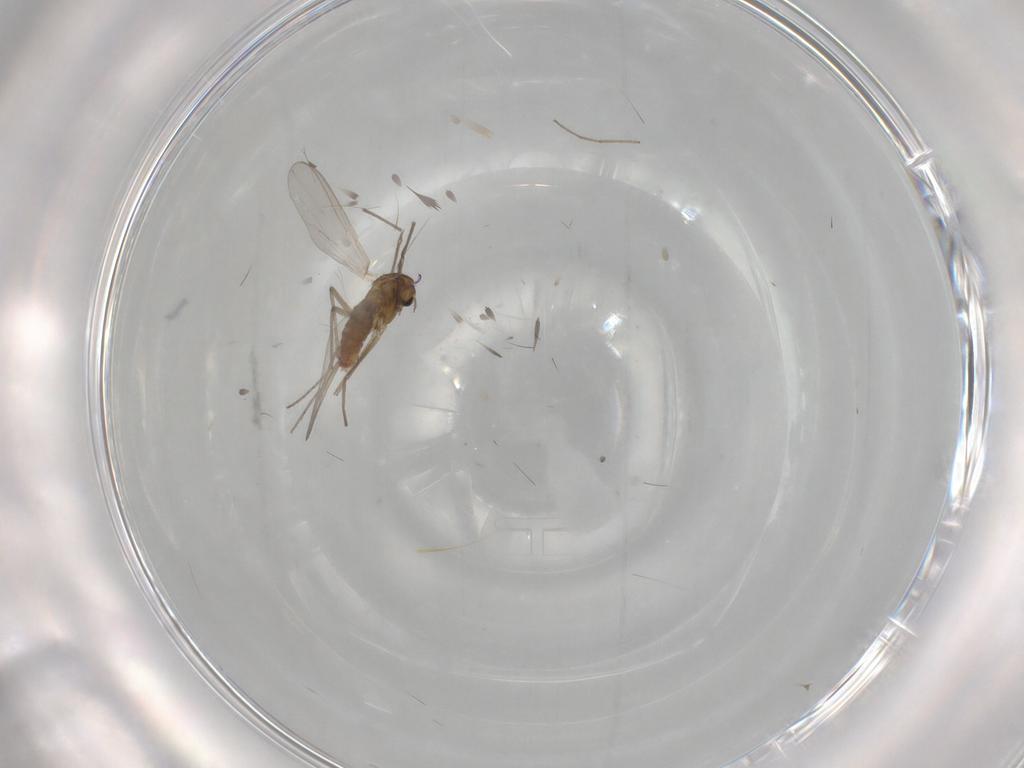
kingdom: Animalia
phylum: Arthropoda
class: Insecta
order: Diptera
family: Chironomidae
